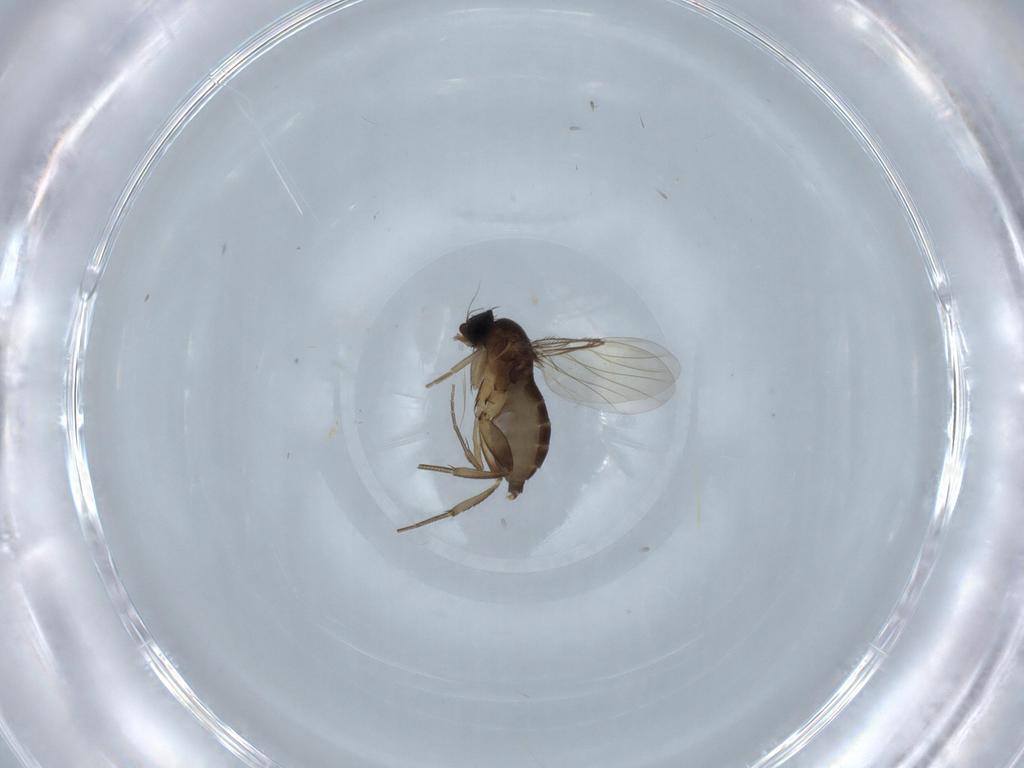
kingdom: Animalia
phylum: Arthropoda
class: Insecta
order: Diptera
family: Phoridae
